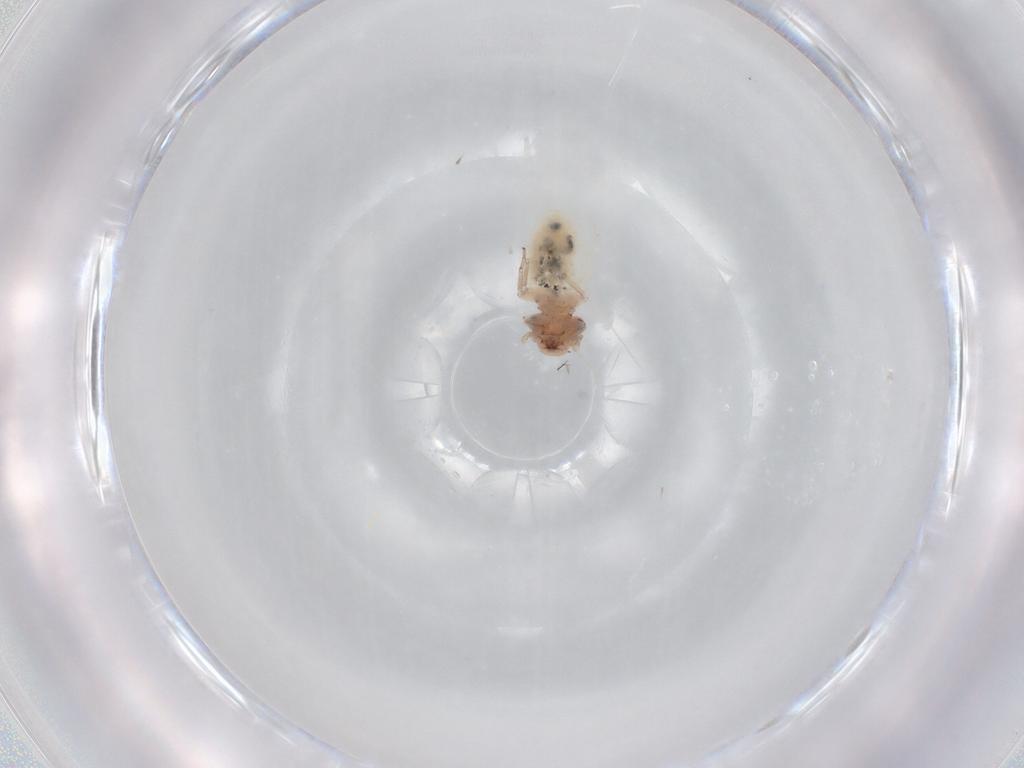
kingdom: Animalia
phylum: Arthropoda
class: Insecta
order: Psocodea
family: Trogiidae
